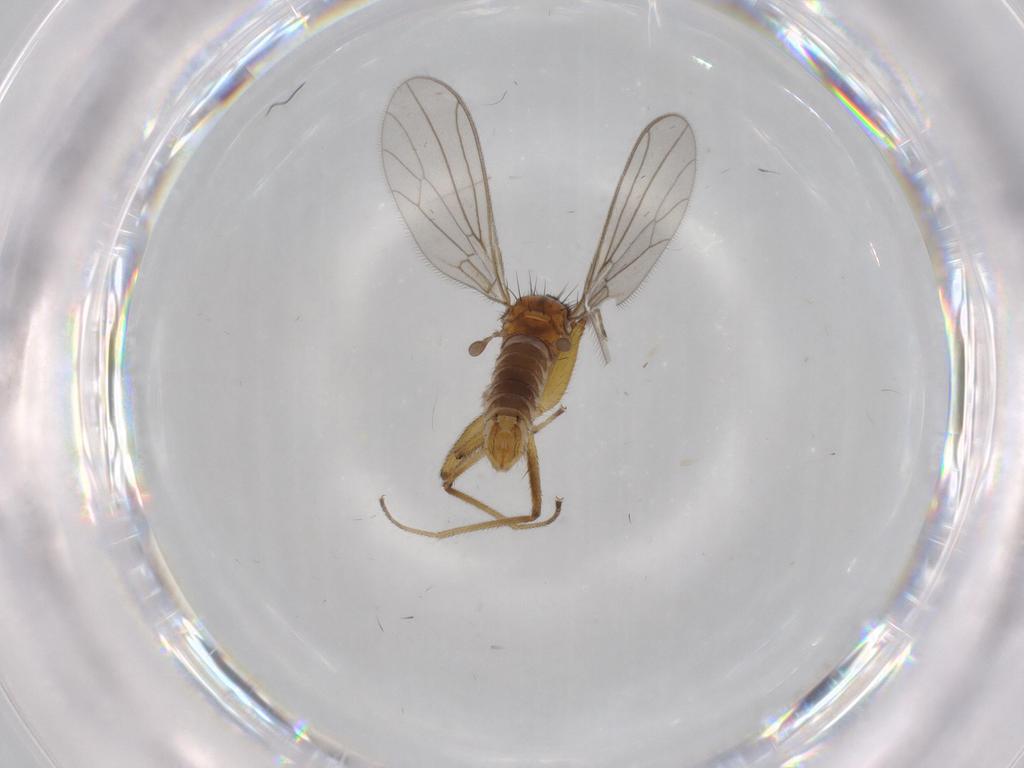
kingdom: Animalia
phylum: Arthropoda
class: Insecta
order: Diptera
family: Empididae
